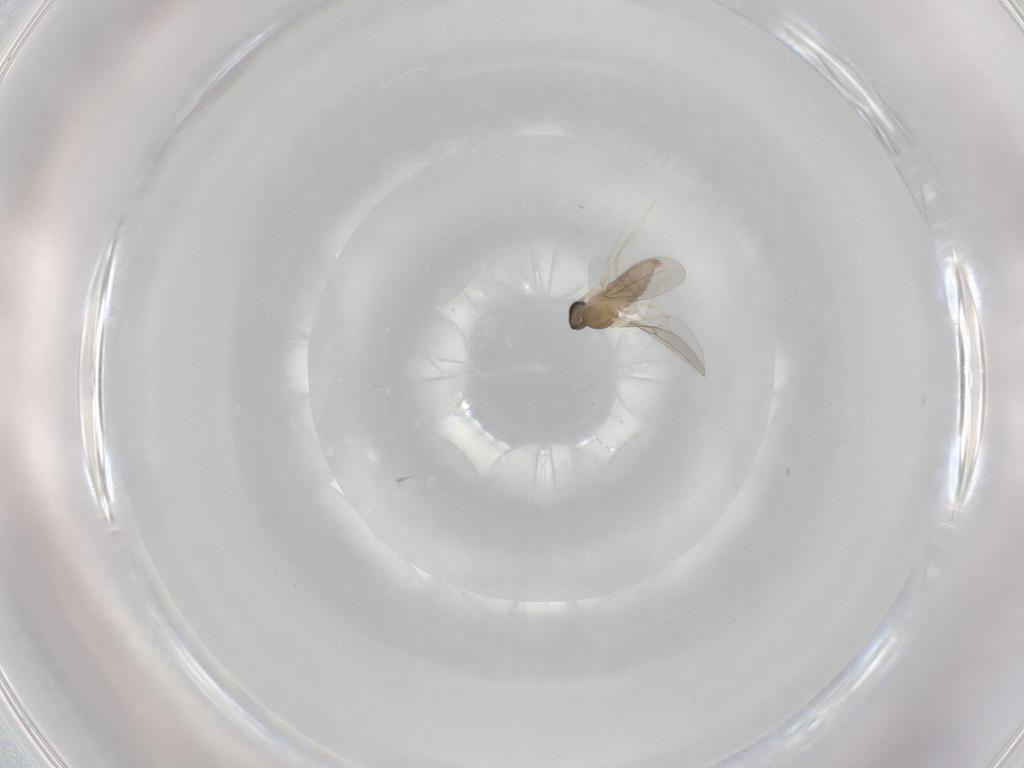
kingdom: Animalia
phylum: Arthropoda
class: Insecta
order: Diptera
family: Cecidomyiidae
